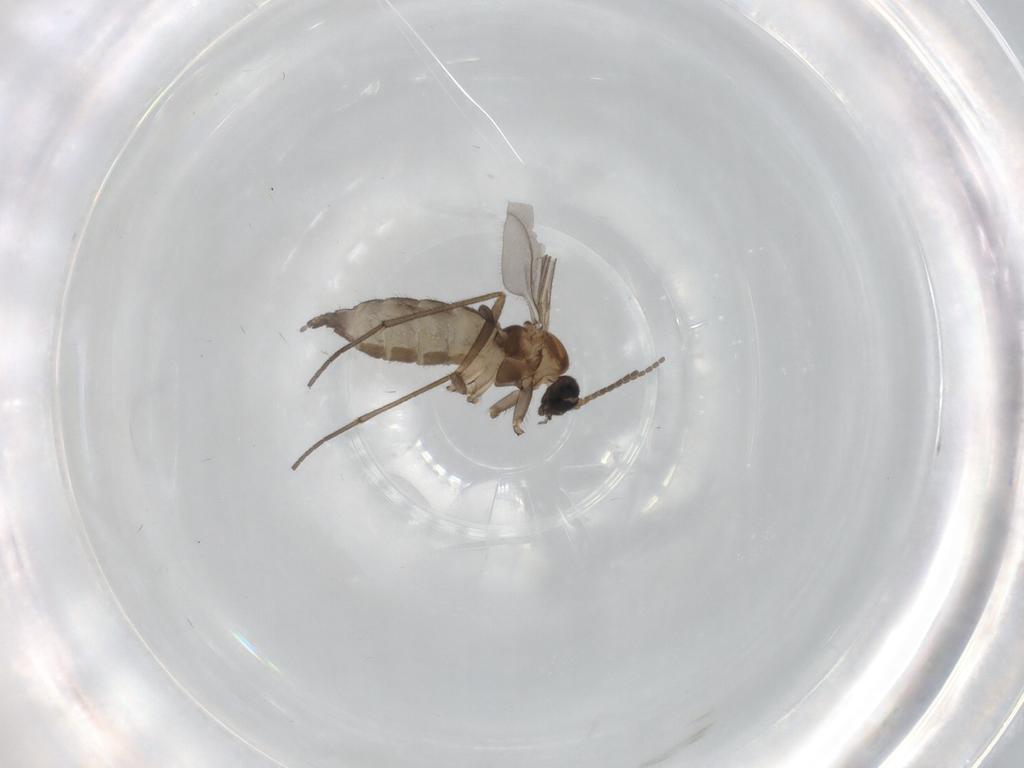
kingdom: Animalia
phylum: Arthropoda
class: Insecta
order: Diptera
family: Sciaridae
